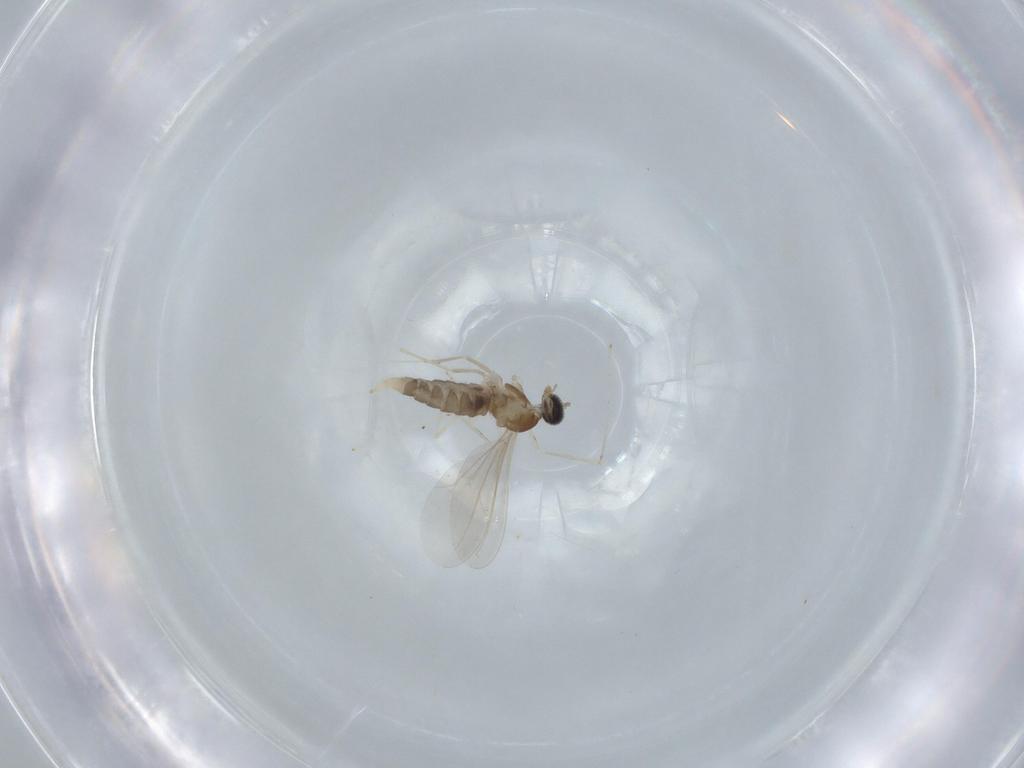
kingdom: Animalia
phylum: Arthropoda
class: Insecta
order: Diptera
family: Cecidomyiidae
